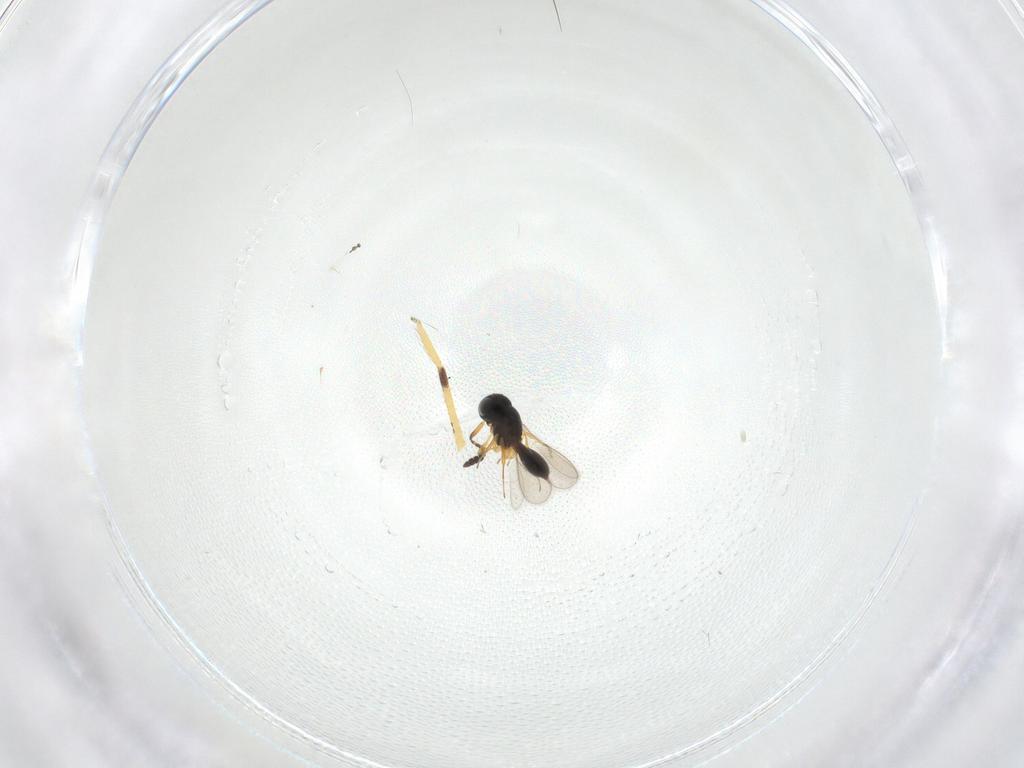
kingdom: Animalia
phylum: Arthropoda
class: Insecta
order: Hymenoptera
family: Scelionidae
